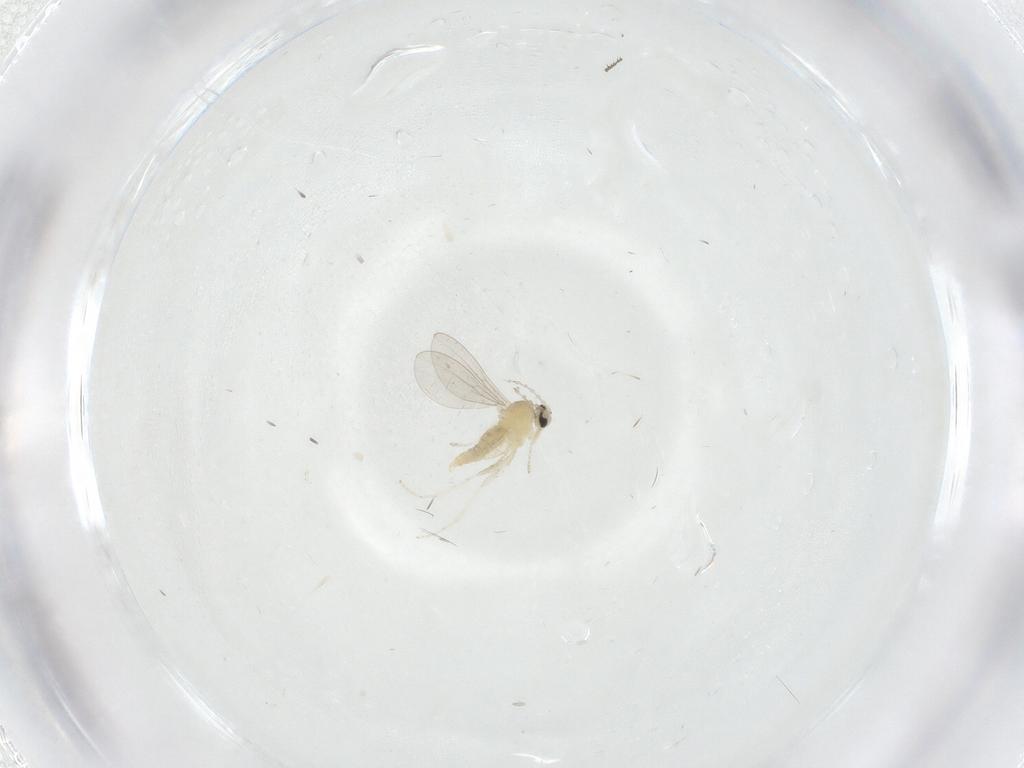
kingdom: Animalia
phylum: Arthropoda
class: Insecta
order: Diptera
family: Cecidomyiidae
